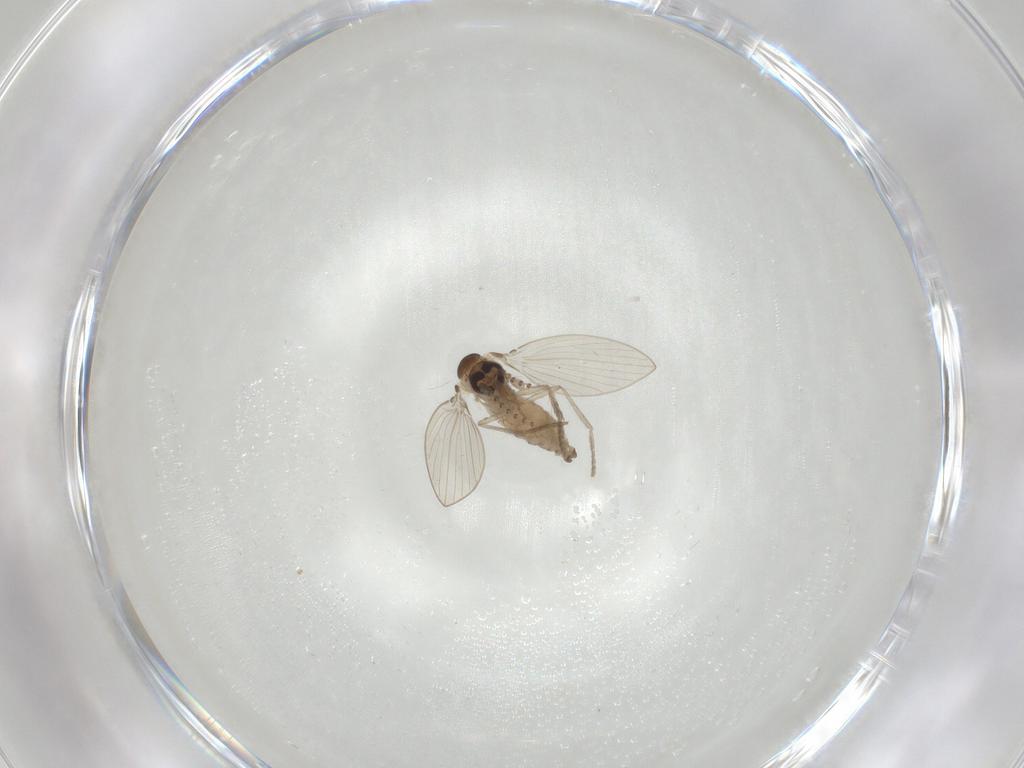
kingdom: Animalia
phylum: Arthropoda
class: Insecta
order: Diptera
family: Psychodidae
